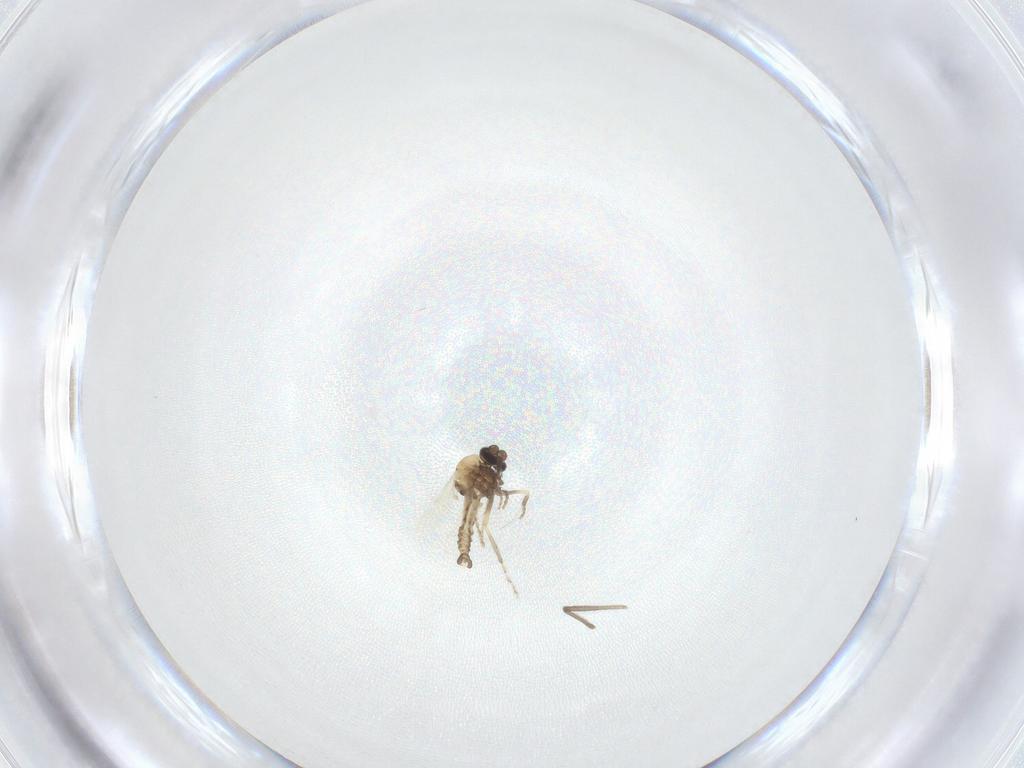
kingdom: Animalia
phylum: Arthropoda
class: Insecta
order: Diptera
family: Chironomidae
